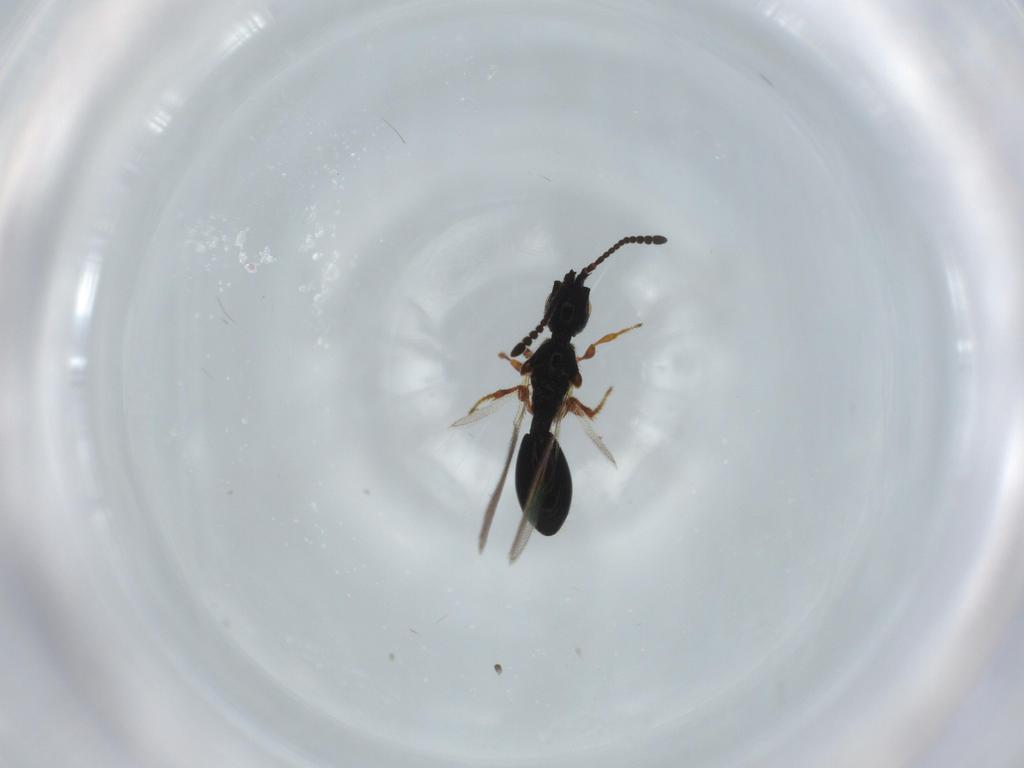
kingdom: Animalia
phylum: Arthropoda
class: Insecta
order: Hymenoptera
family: Diapriidae
